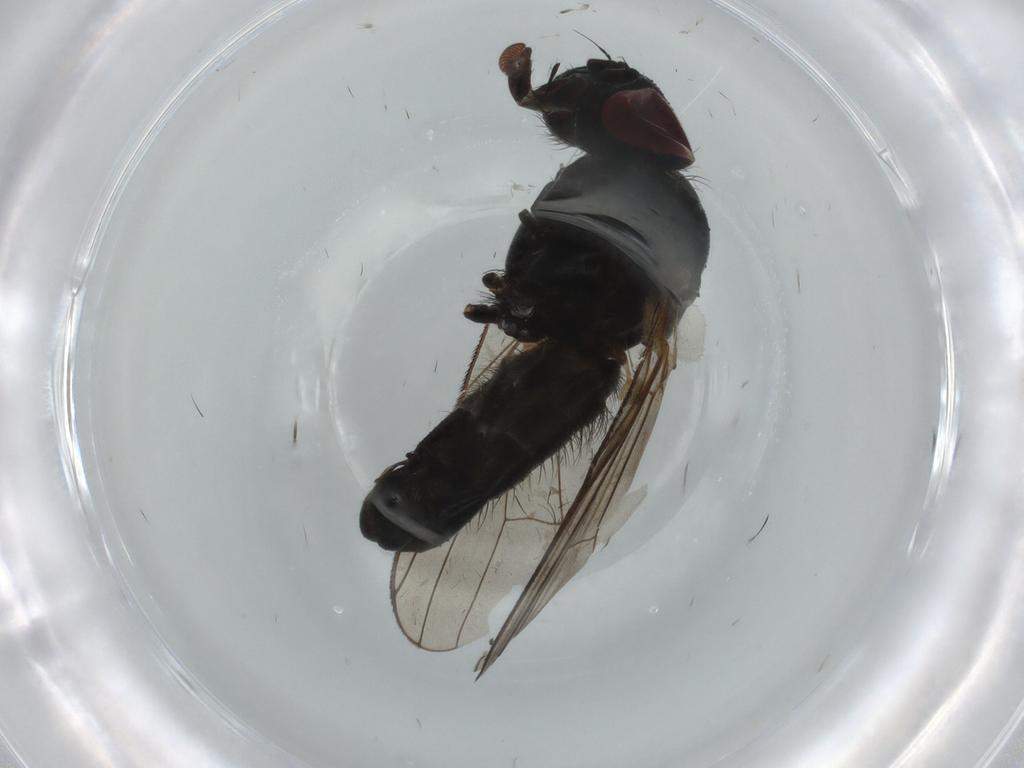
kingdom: Animalia
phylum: Arthropoda
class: Insecta
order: Diptera
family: Fannia
